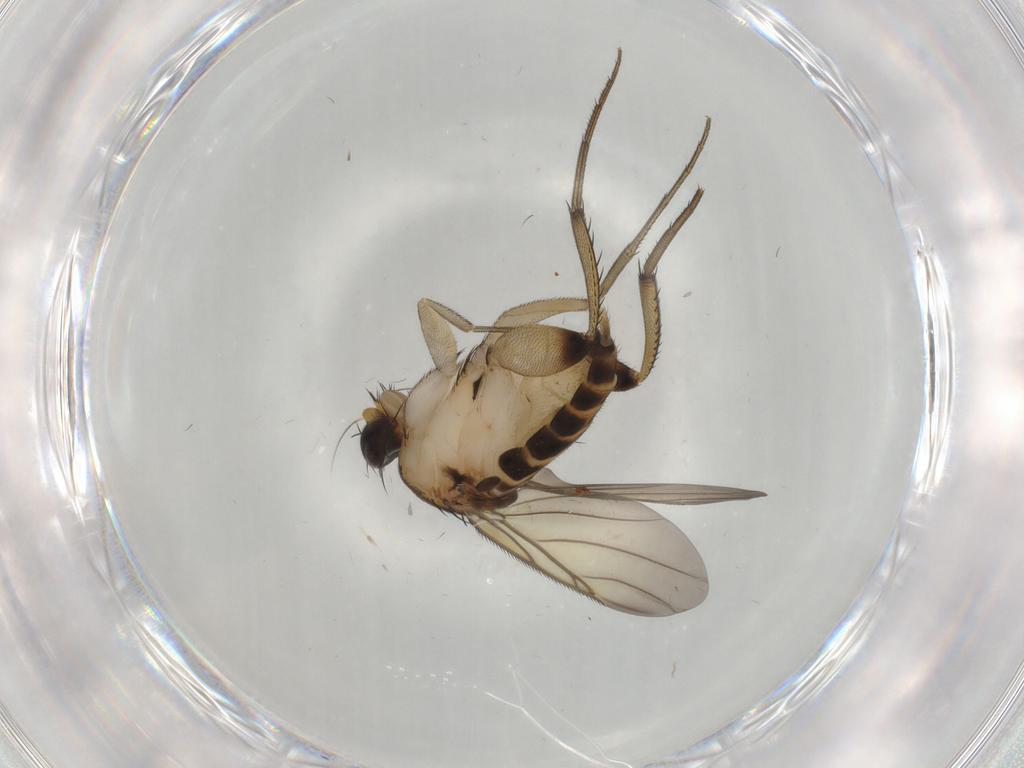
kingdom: Animalia
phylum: Arthropoda
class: Insecta
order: Diptera
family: Phoridae
